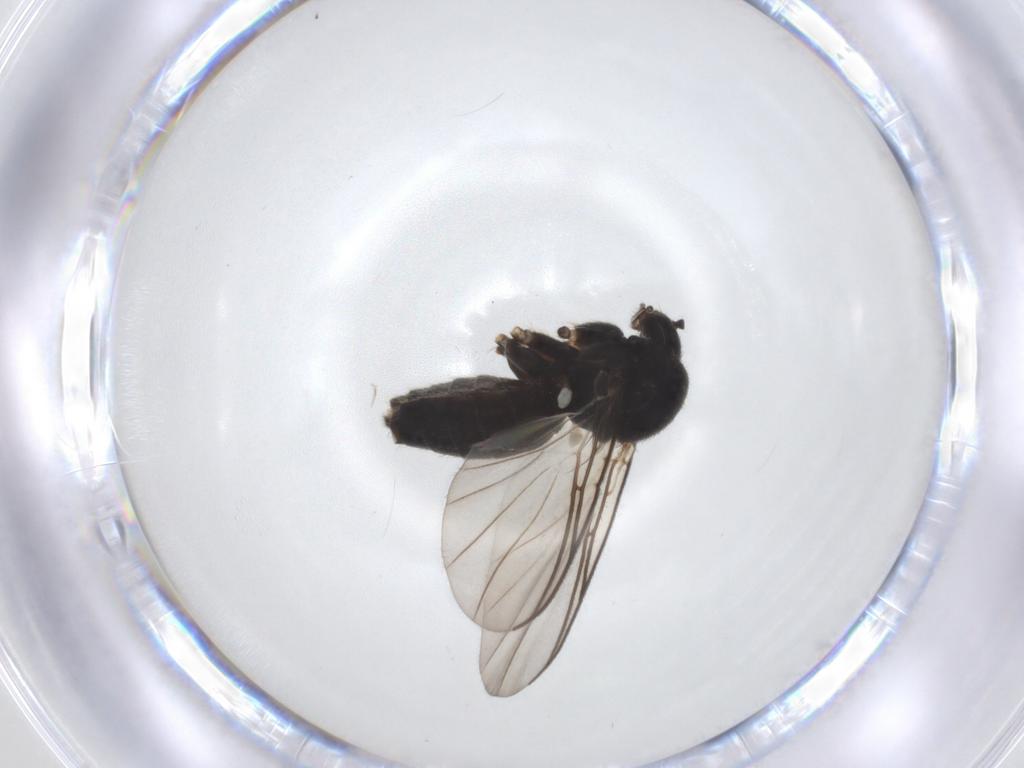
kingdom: Animalia
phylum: Arthropoda
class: Insecta
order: Diptera
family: Mycetophilidae
